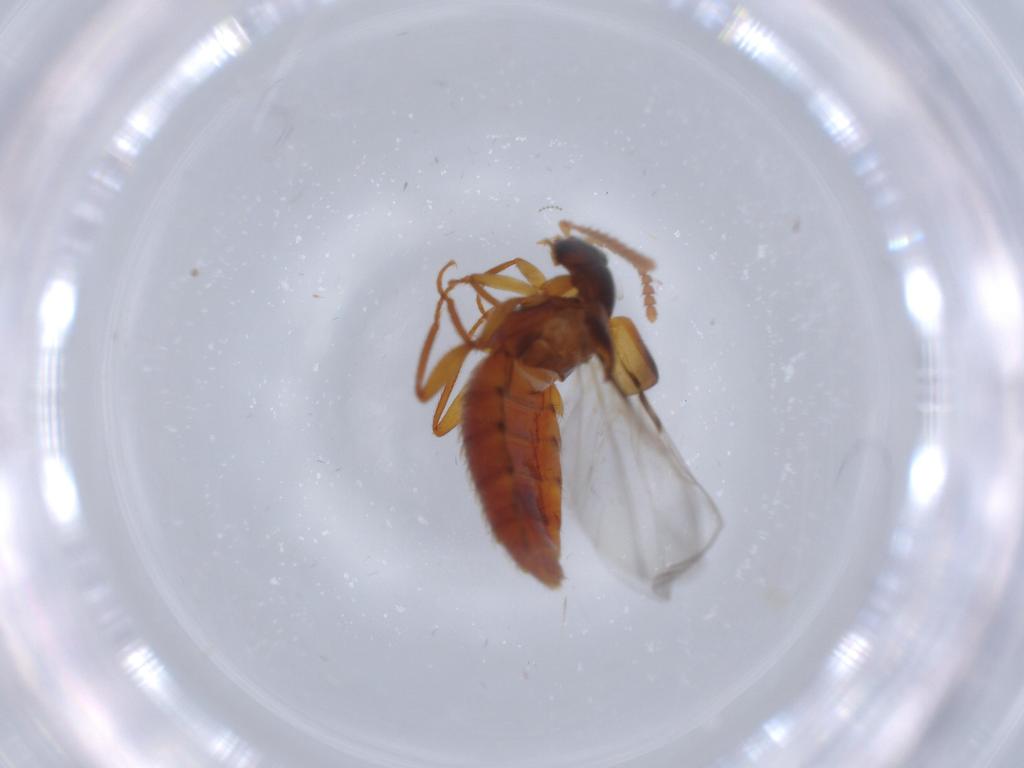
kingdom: Animalia
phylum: Arthropoda
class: Insecta
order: Coleoptera
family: Staphylinidae
